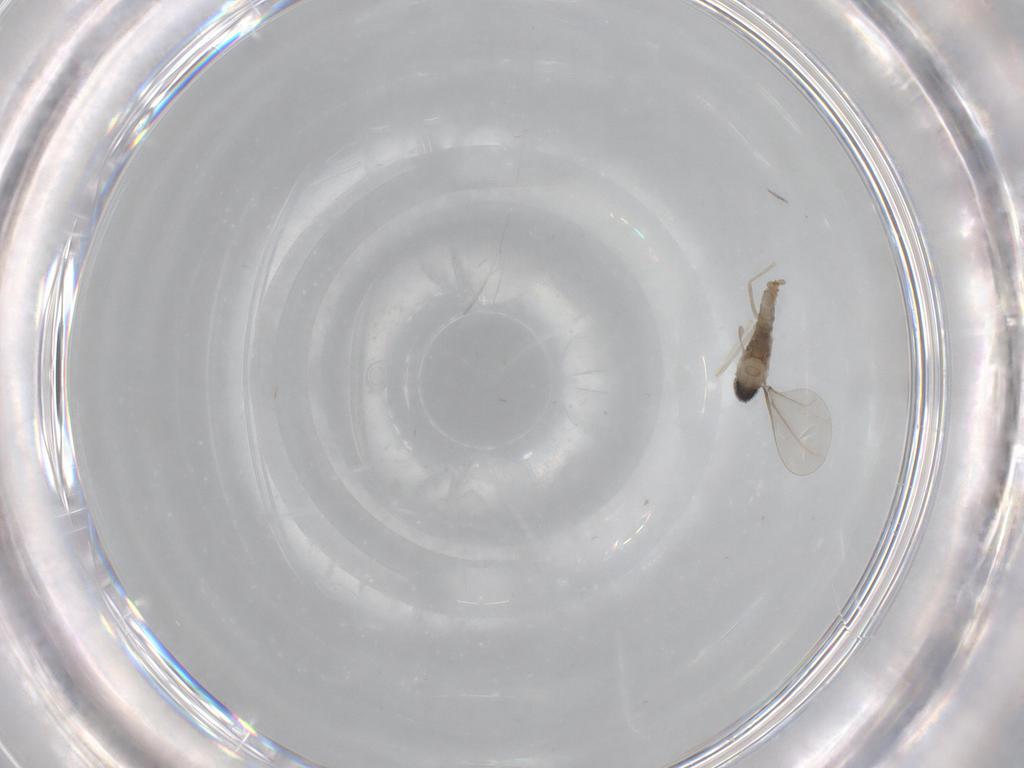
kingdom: Animalia
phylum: Arthropoda
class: Insecta
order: Diptera
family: Cecidomyiidae
